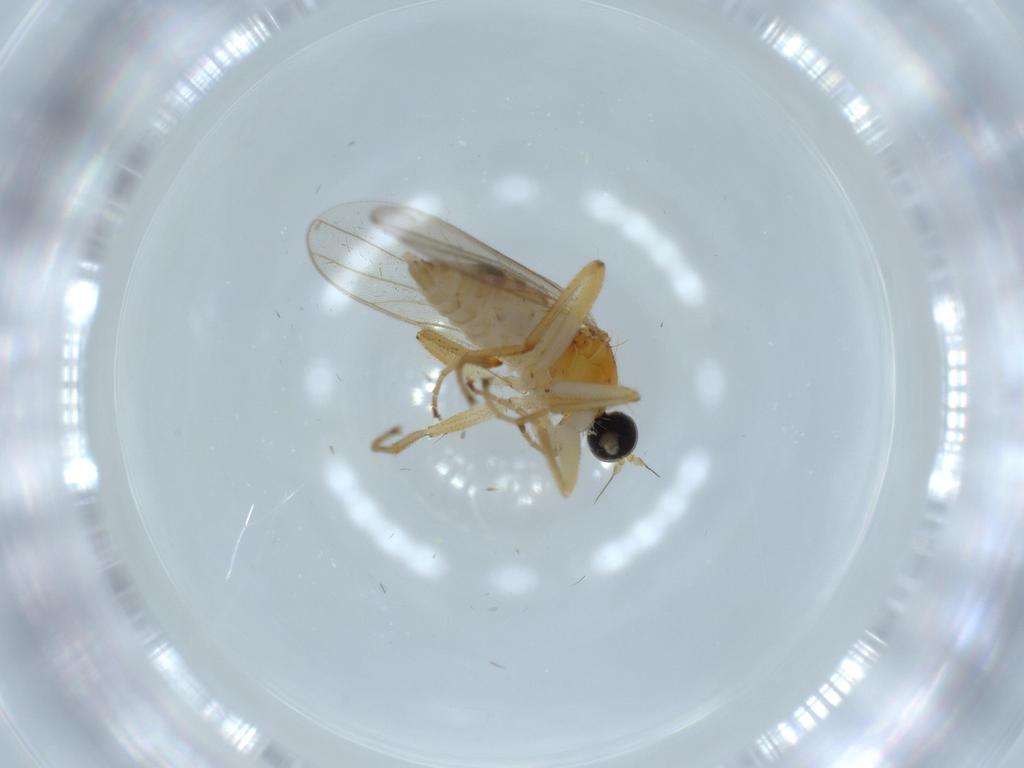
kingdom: Animalia
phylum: Arthropoda
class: Insecta
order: Diptera
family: Hybotidae
